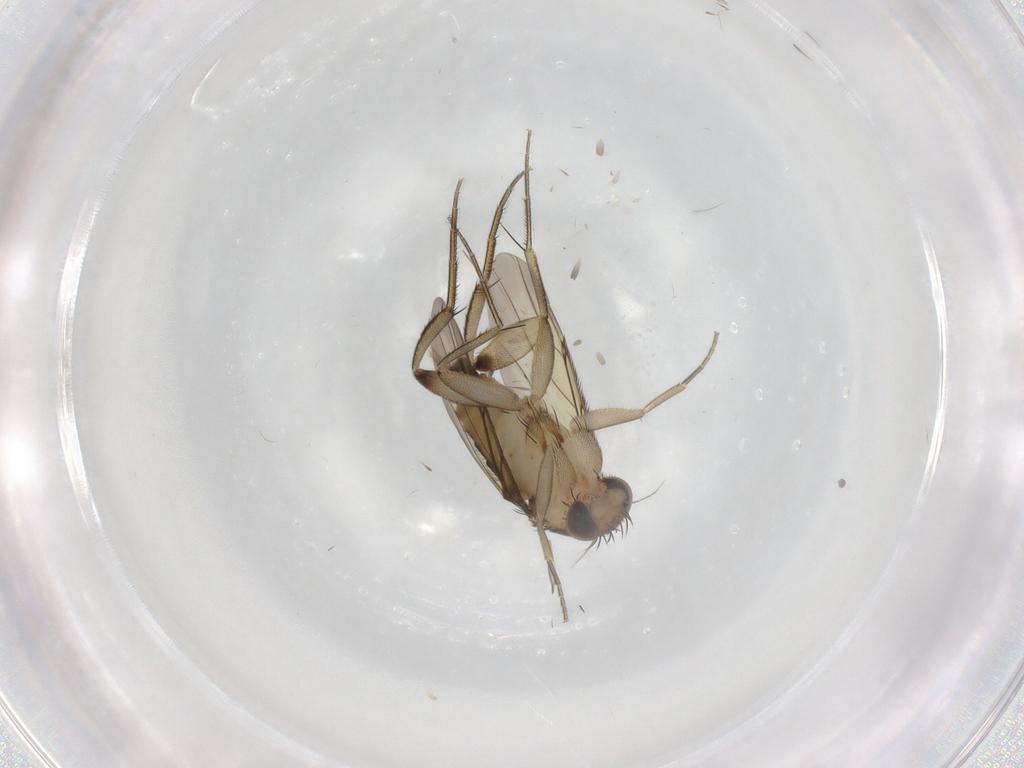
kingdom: Animalia
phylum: Arthropoda
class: Insecta
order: Diptera
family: Phoridae
